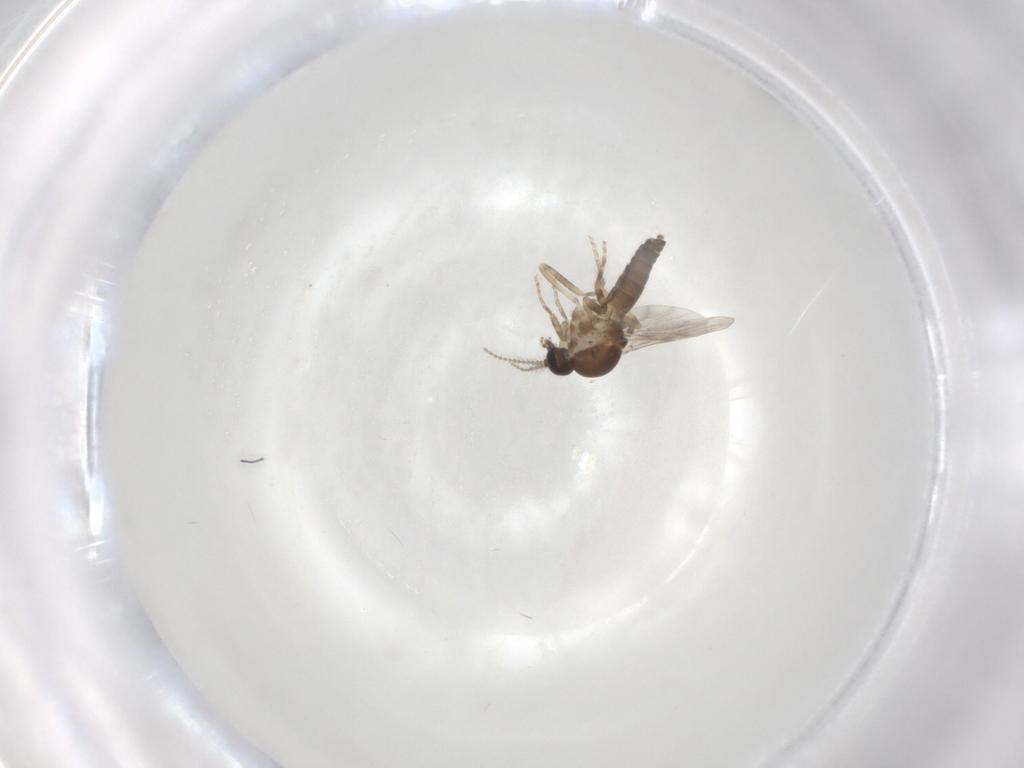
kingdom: Animalia
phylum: Arthropoda
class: Insecta
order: Diptera
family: Ceratopogonidae
